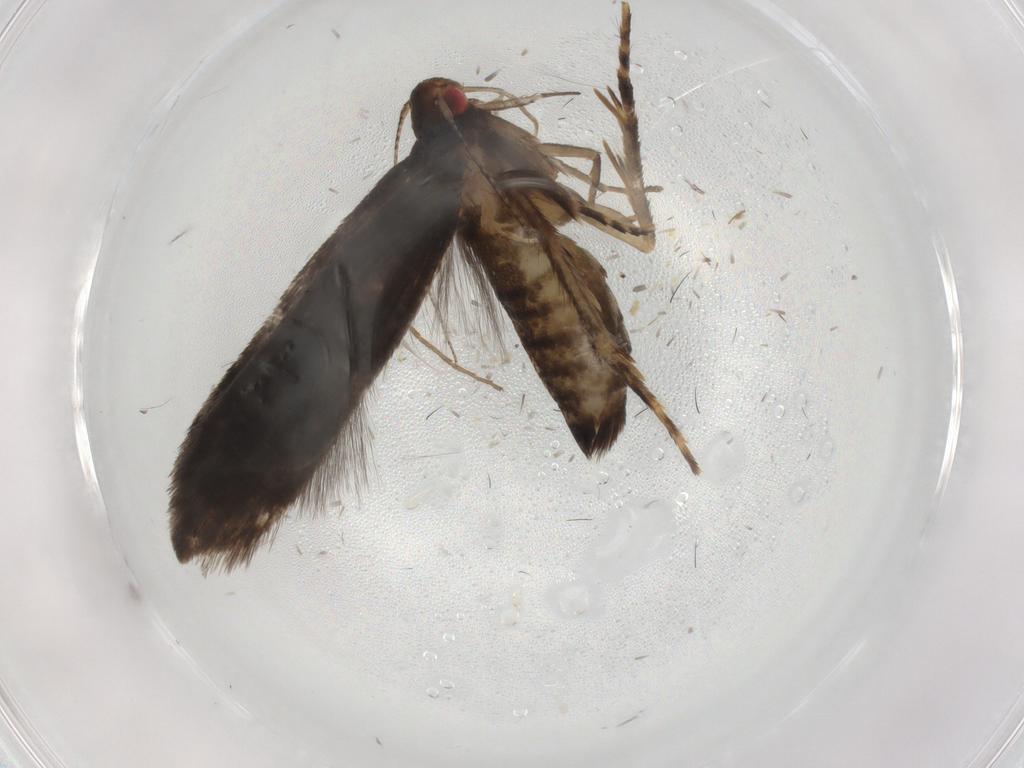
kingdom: Animalia
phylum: Arthropoda
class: Insecta
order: Lepidoptera
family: Gelechiidae
